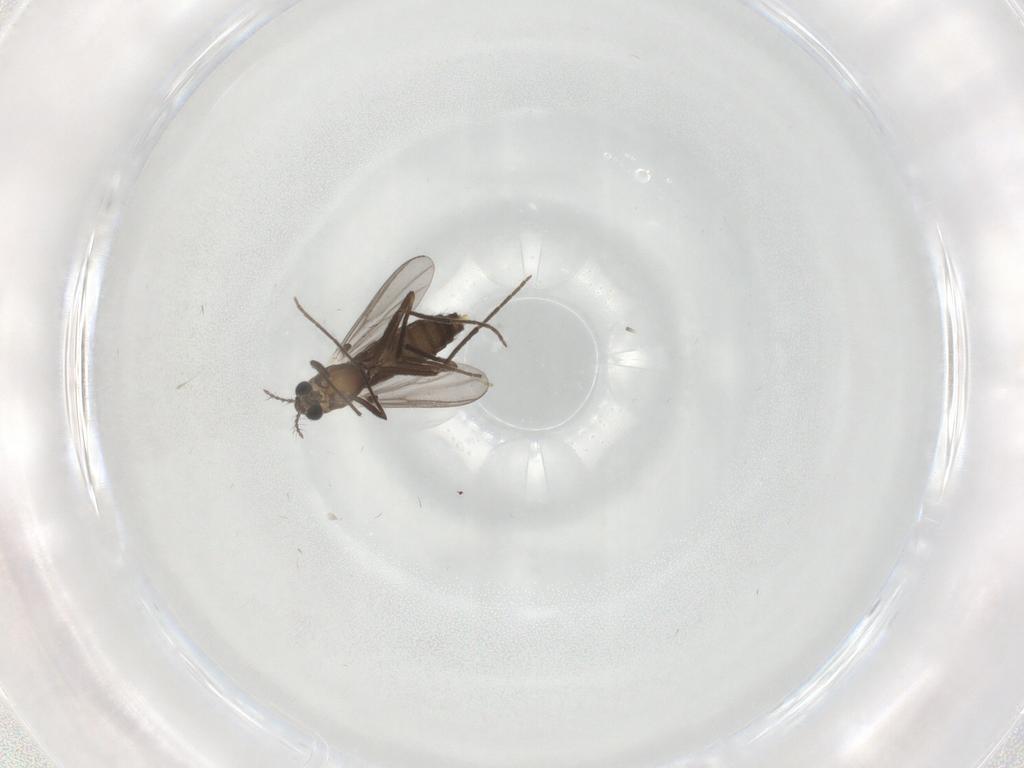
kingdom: Animalia
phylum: Arthropoda
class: Insecta
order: Diptera
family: Chironomidae
